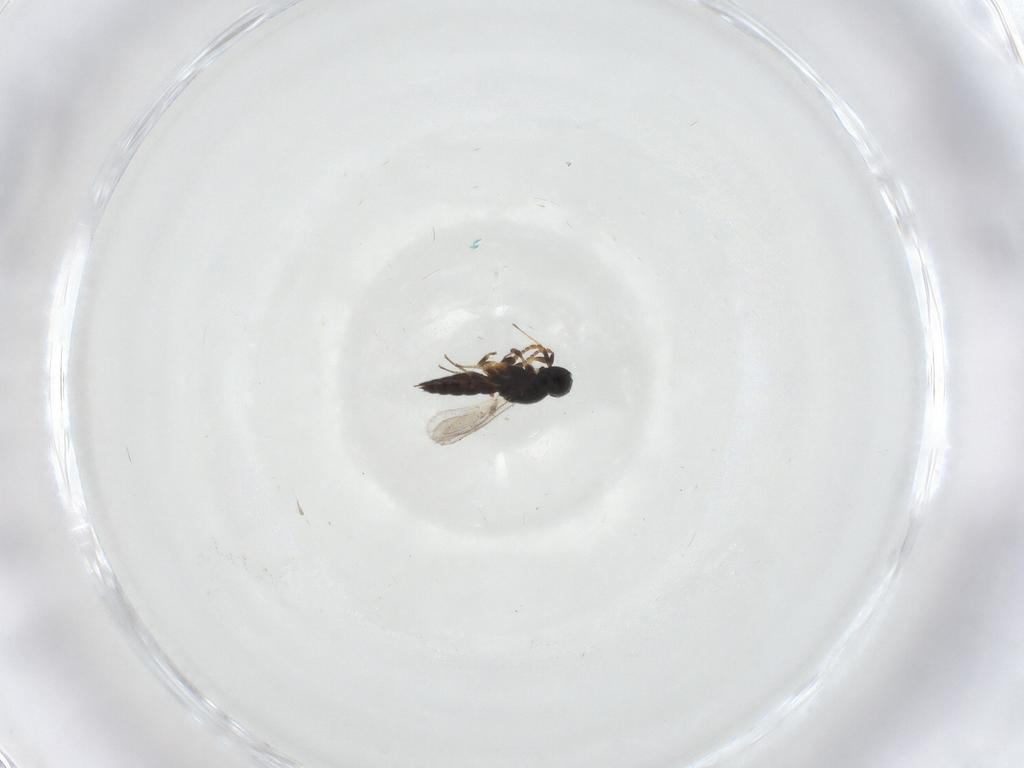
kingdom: Animalia
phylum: Arthropoda
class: Insecta
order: Hymenoptera
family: Scelionidae
